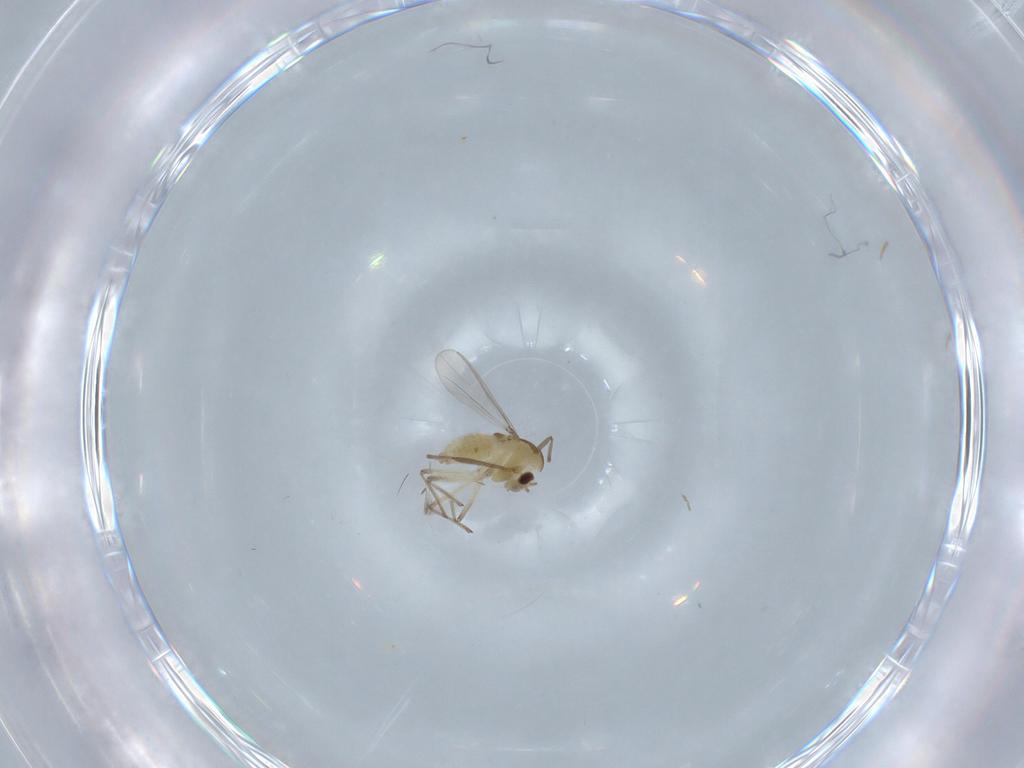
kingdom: Animalia
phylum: Arthropoda
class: Insecta
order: Diptera
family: Chironomidae
